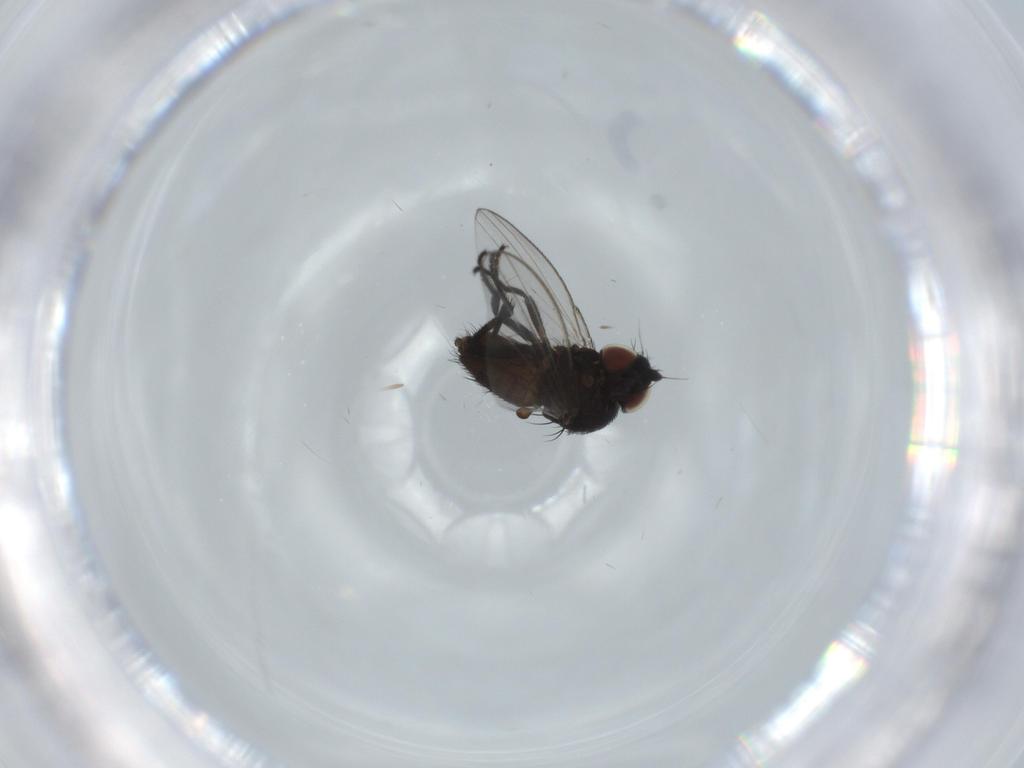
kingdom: Animalia
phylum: Arthropoda
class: Insecta
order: Diptera
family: Milichiidae
